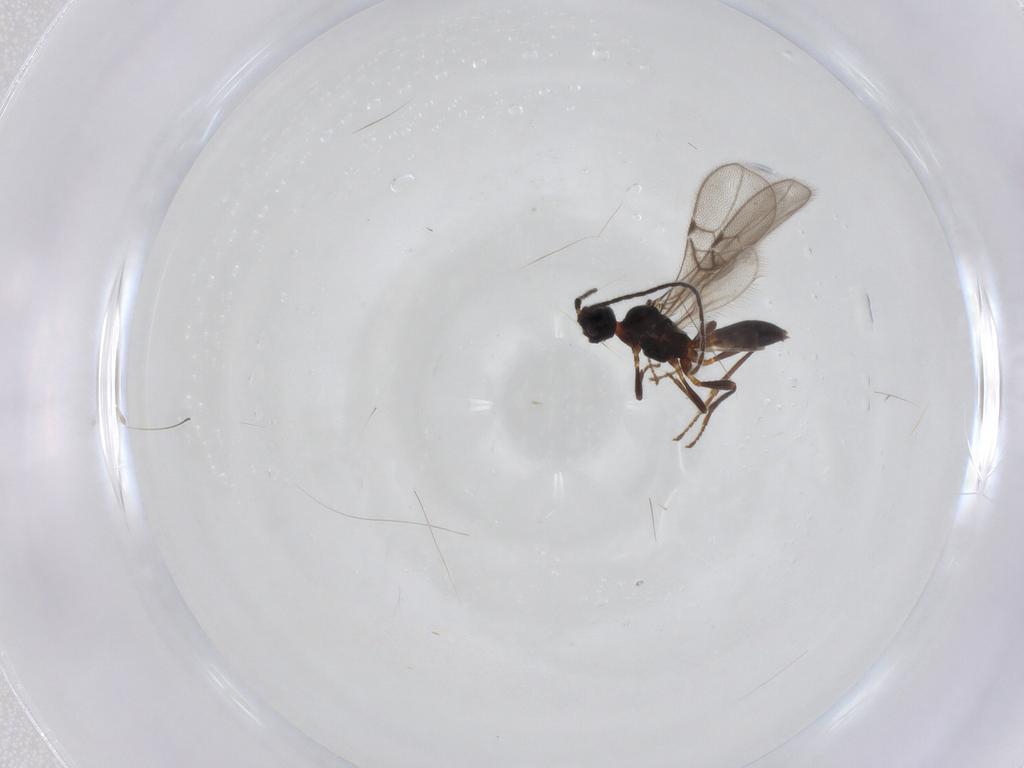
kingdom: Animalia
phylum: Arthropoda
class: Insecta
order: Hymenoptera
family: Braconidae
